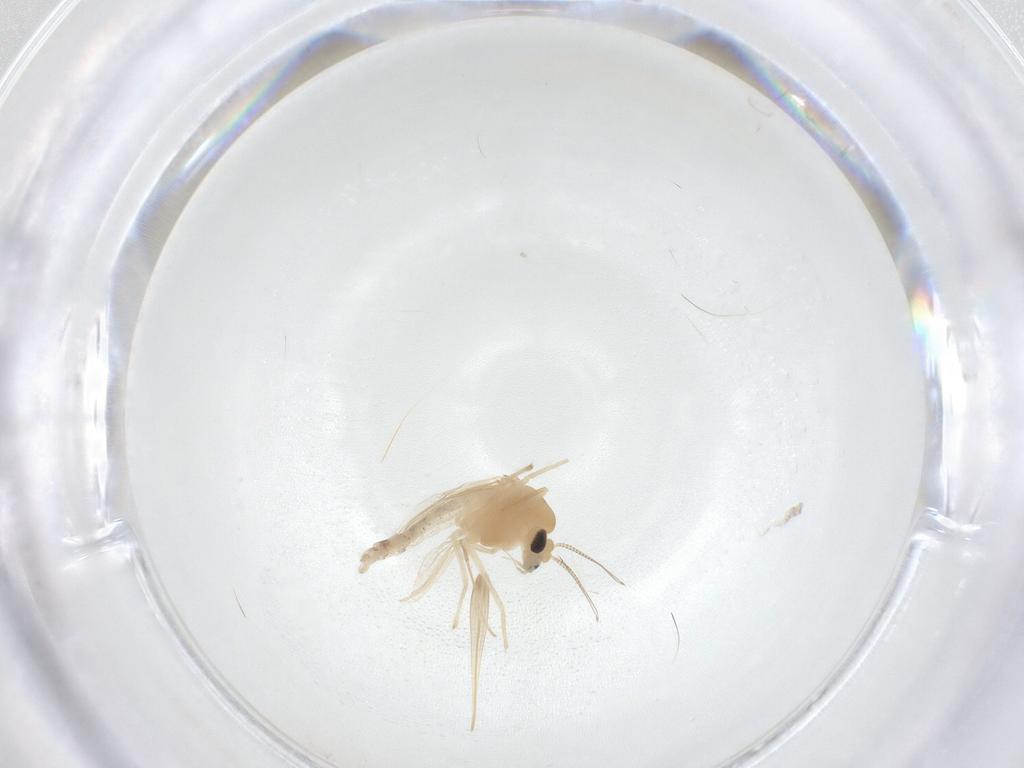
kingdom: Animalia
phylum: Arthropoda
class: Insecta
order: Diptera
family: Chironomidae
